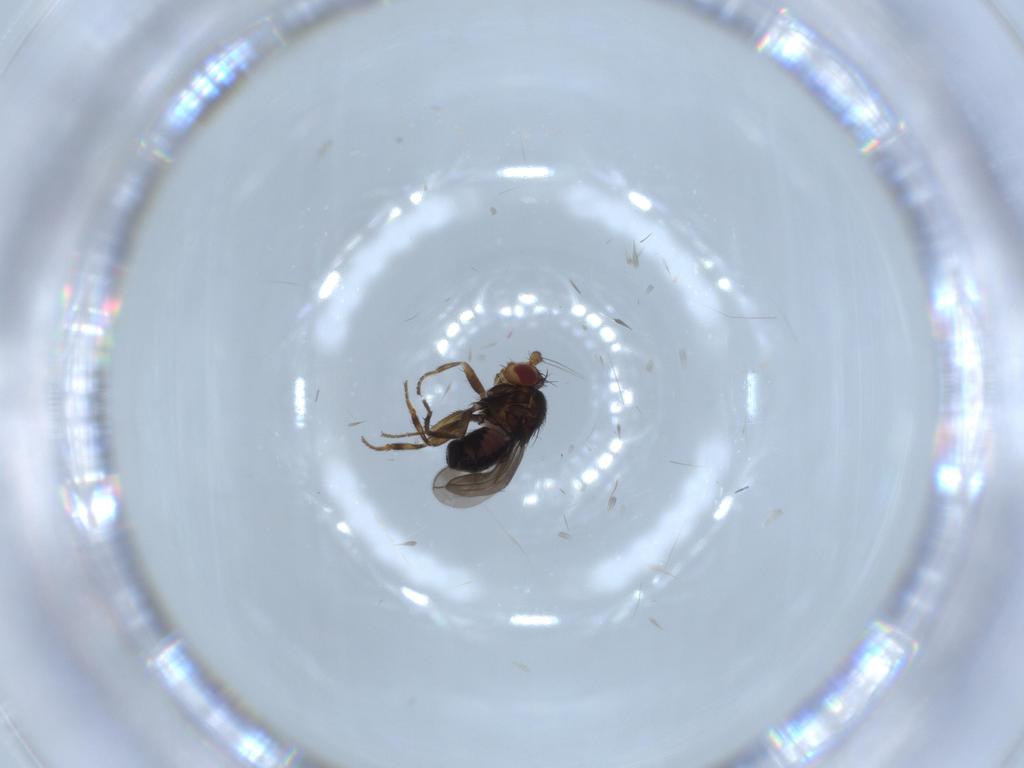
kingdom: Animalia
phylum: Arthropoda
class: Insecta
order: Diptera
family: Sphaeroceridae
